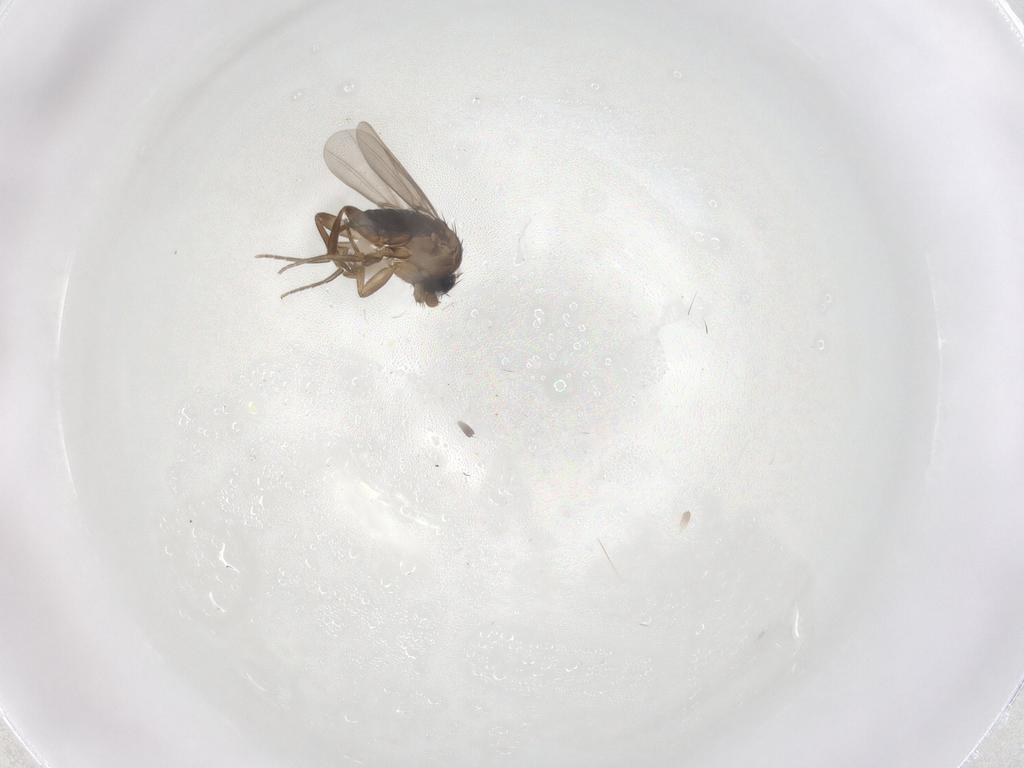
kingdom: Animalia
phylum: Arthropoda
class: Insecta
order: Diptera
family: Phoridae
